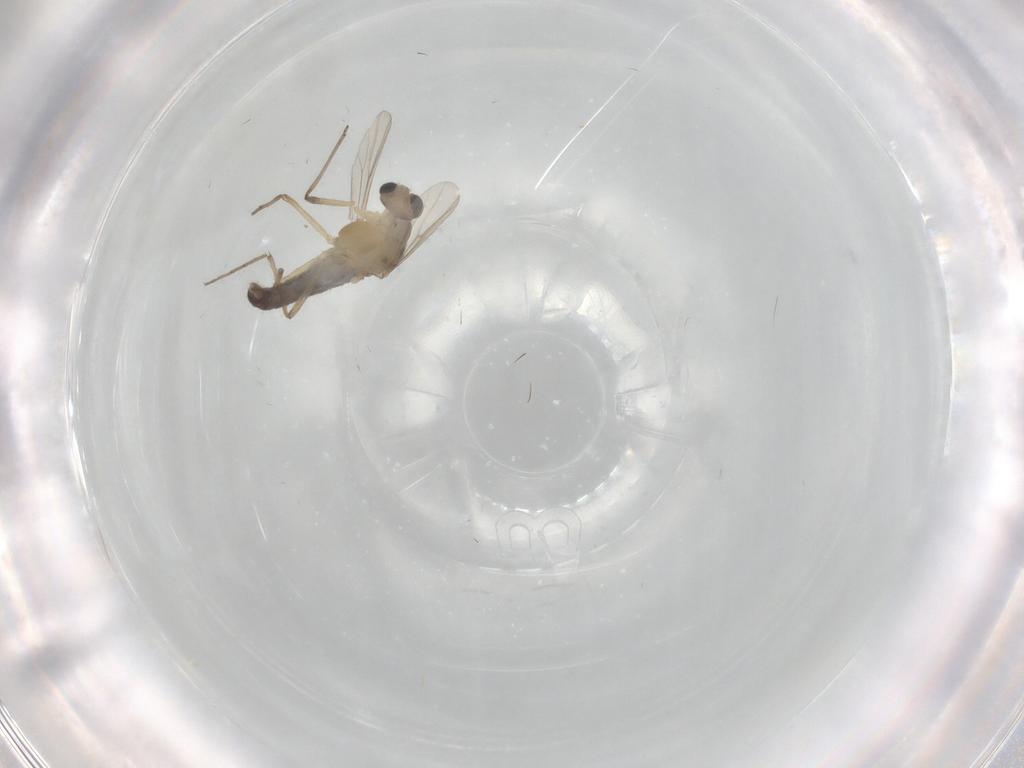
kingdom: Animalia
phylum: Arthropoda
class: Insecta
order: Diptera
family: Chironomidae
